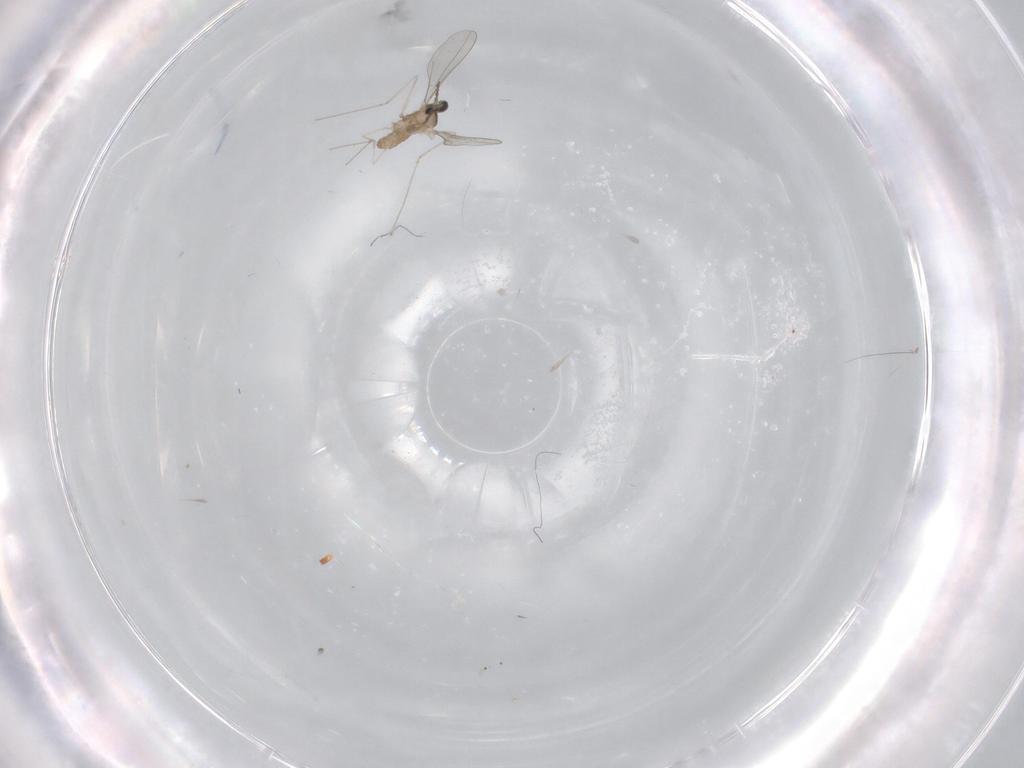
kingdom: Animalia
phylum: Arthropoda
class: Insecta
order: Diptera
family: Cecidomyiidae
